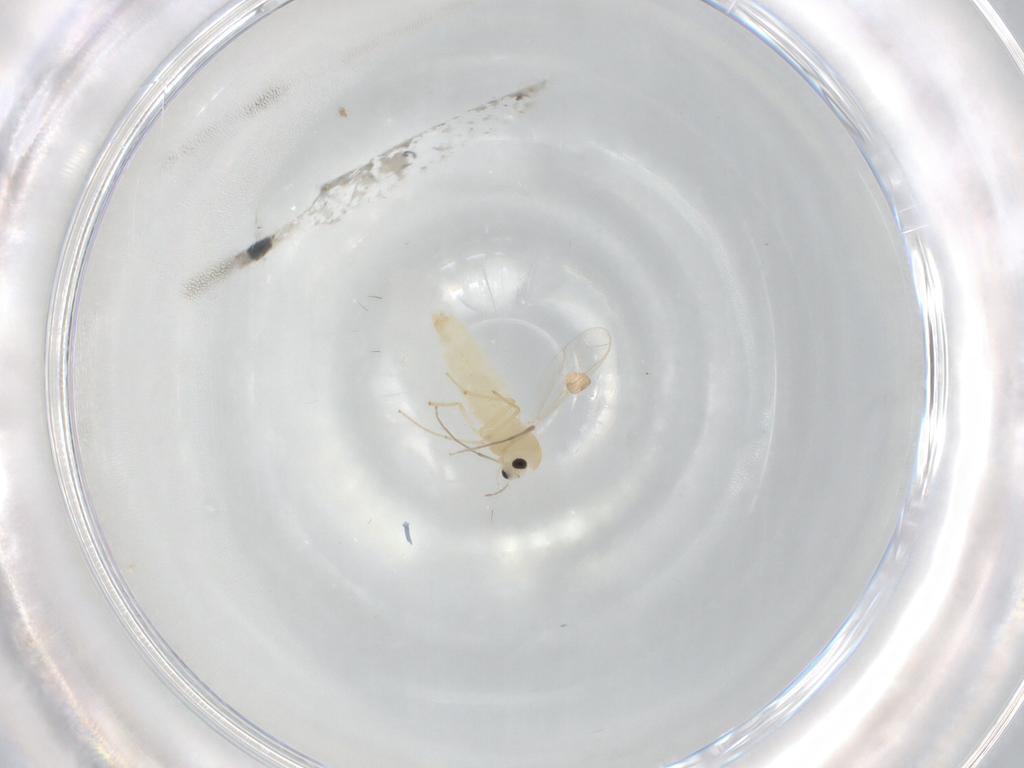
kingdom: Animalia
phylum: Arthropoda
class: Insecta
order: Diptera
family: Chironomidae
